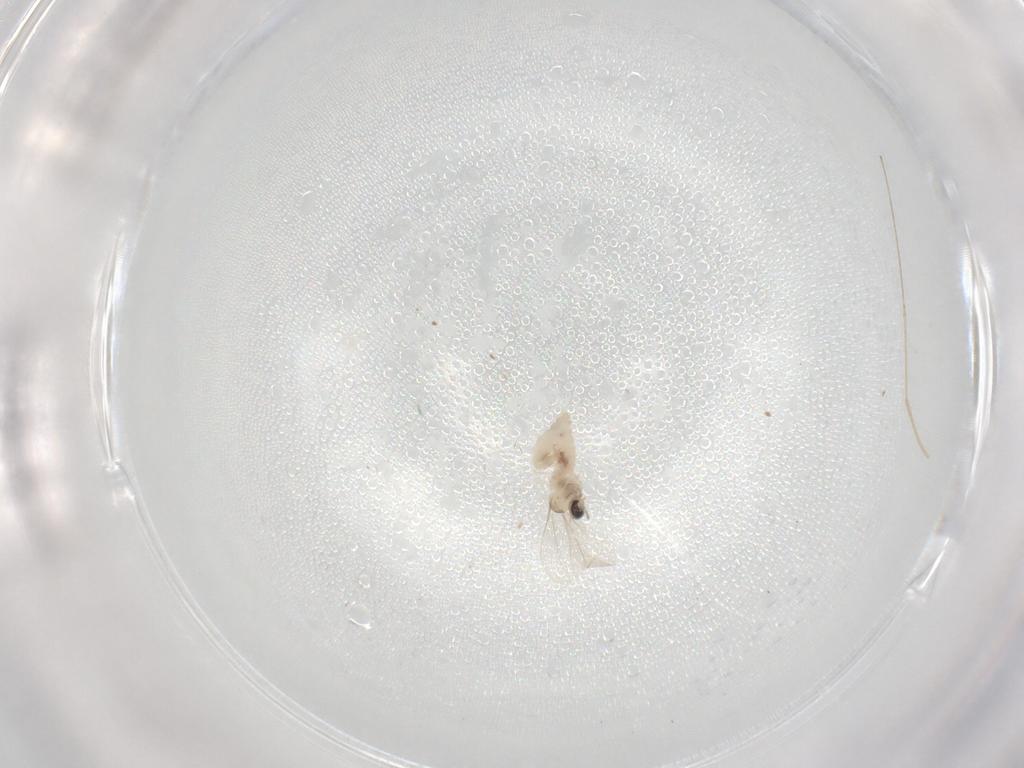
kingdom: Animalia
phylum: Arthropoda
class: Insecta
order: Diptera
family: Cecidomyiidae
